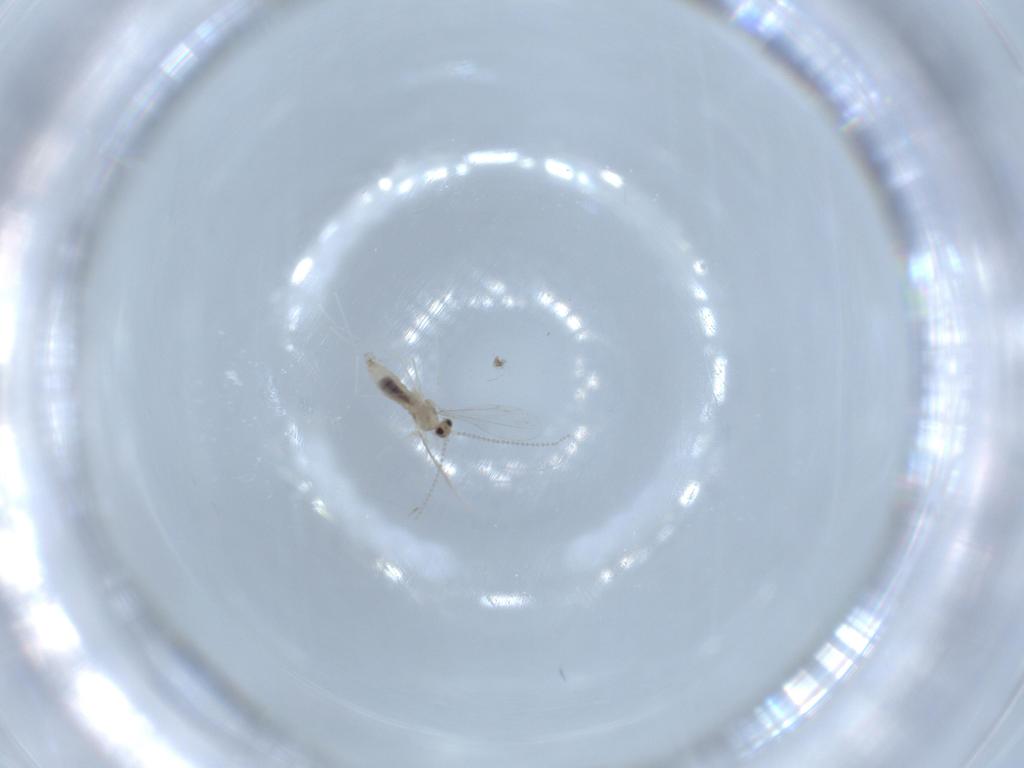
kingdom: Animalia
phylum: Arthropoda
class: Insecta
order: Diptera
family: Cecidomyiidae
